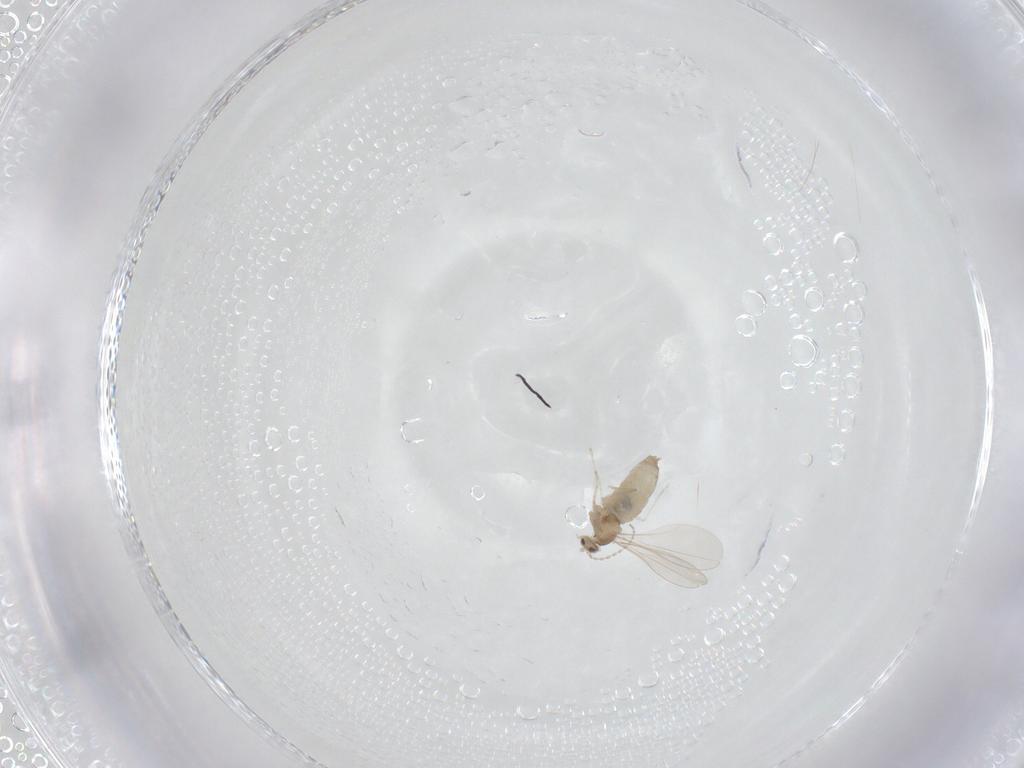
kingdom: Animalia
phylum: Arthropoda
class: Insecta
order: Diptera
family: Cecidomyiidae
